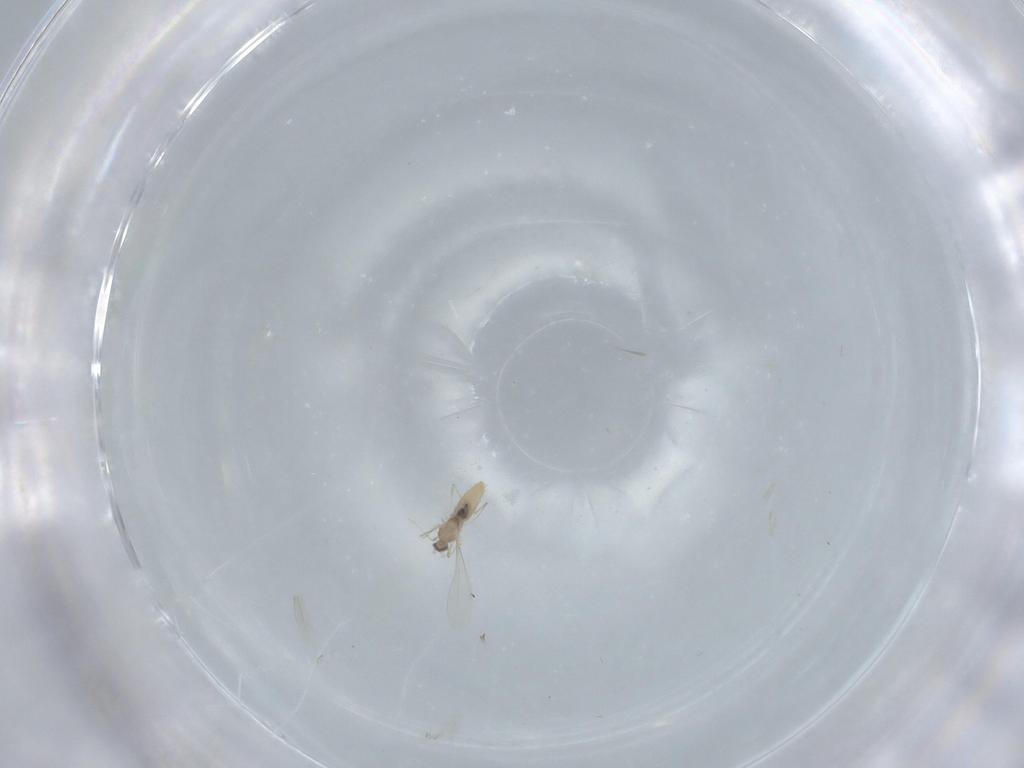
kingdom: Animalia
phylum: Arthropoda
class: Insecta
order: Diptera
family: Cecidomyiidae
